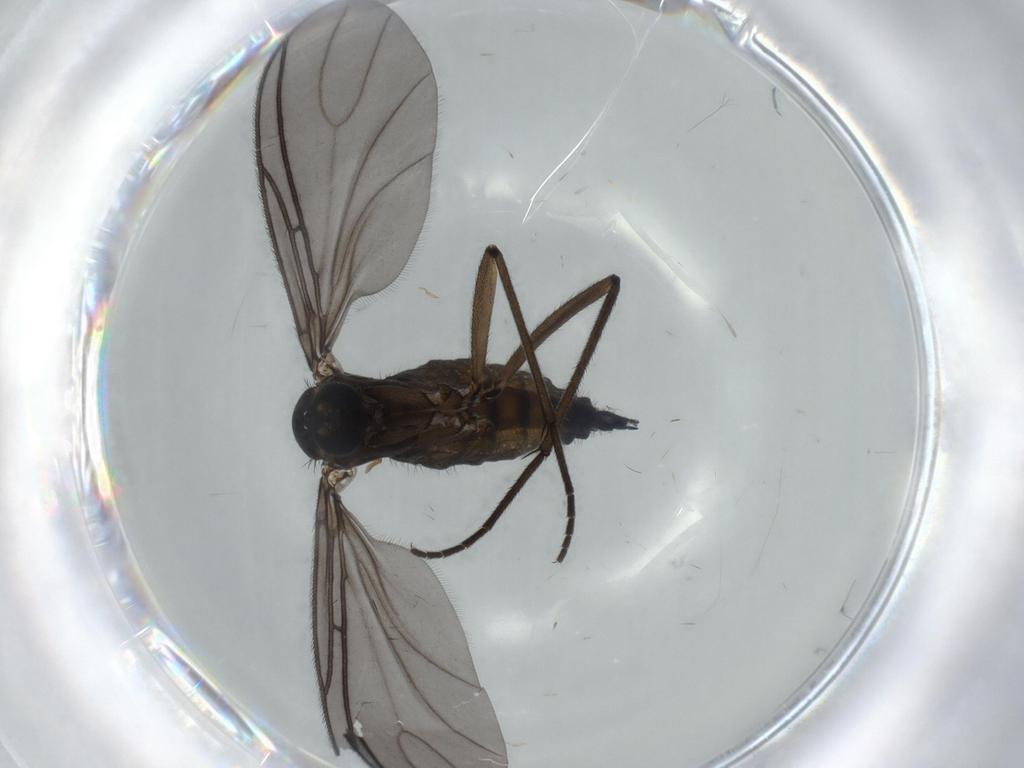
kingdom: Animalia
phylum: Arthropoda
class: Insecta
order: Diptera
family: Sciaridae
